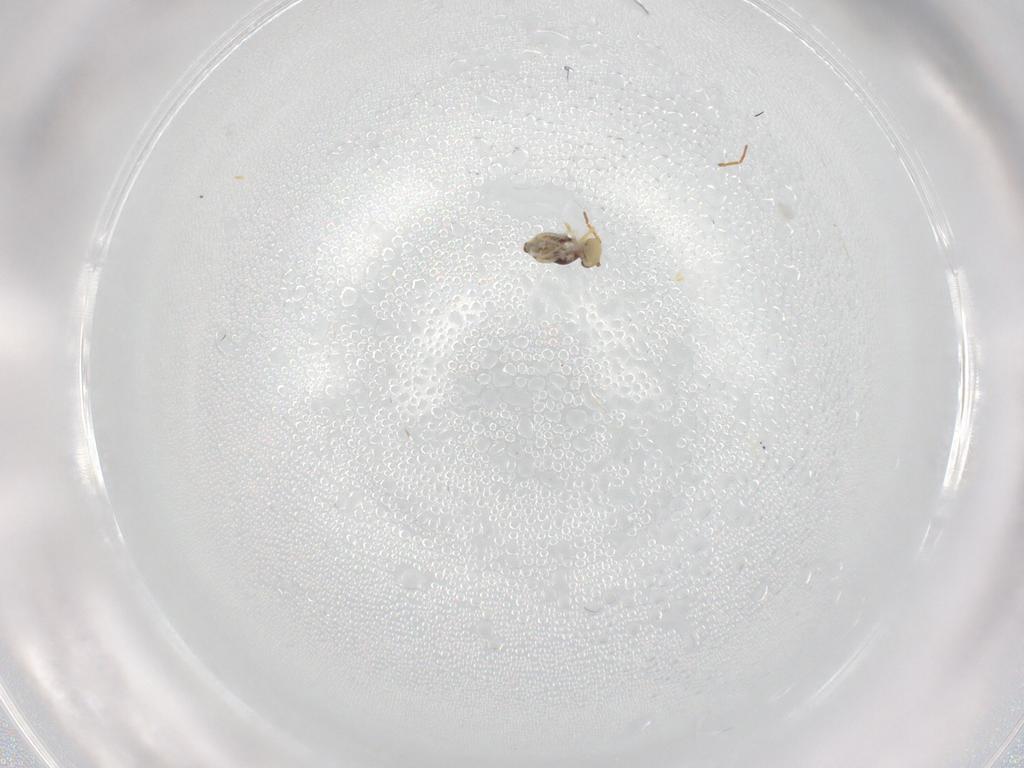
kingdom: Animalia
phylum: Arthropoda
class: Collembola
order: Symphypleona
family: Bourletiellidae
